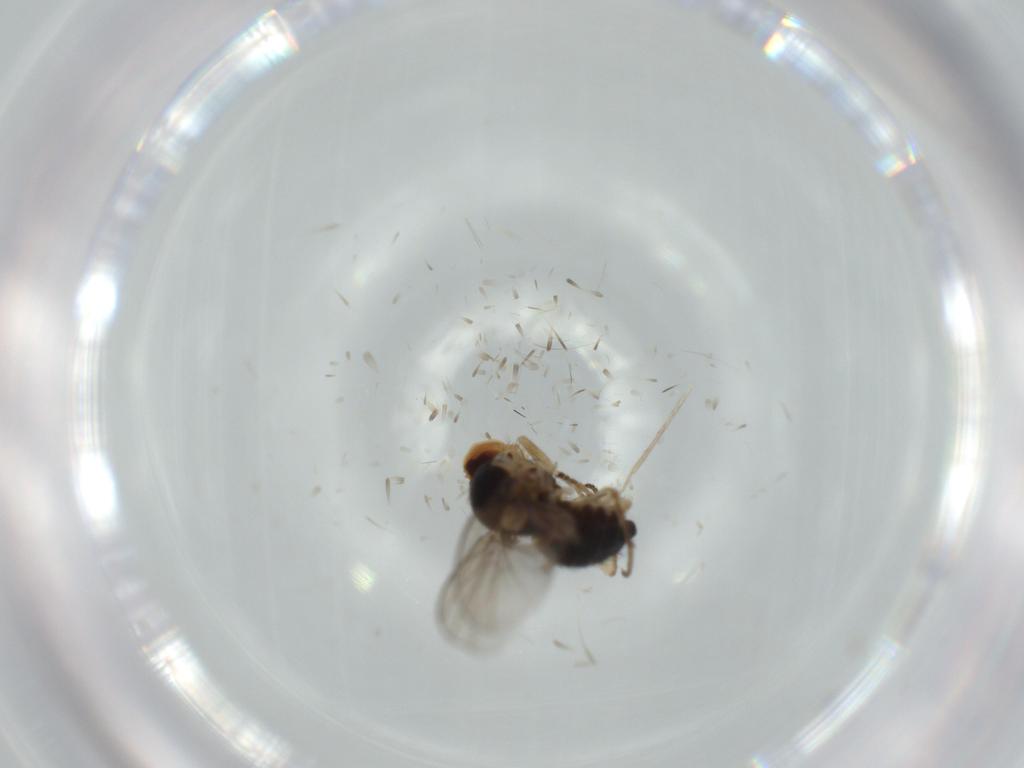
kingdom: Animalia
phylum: Arthropoda
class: Insecta
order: Diptera
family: Agromyzidae
